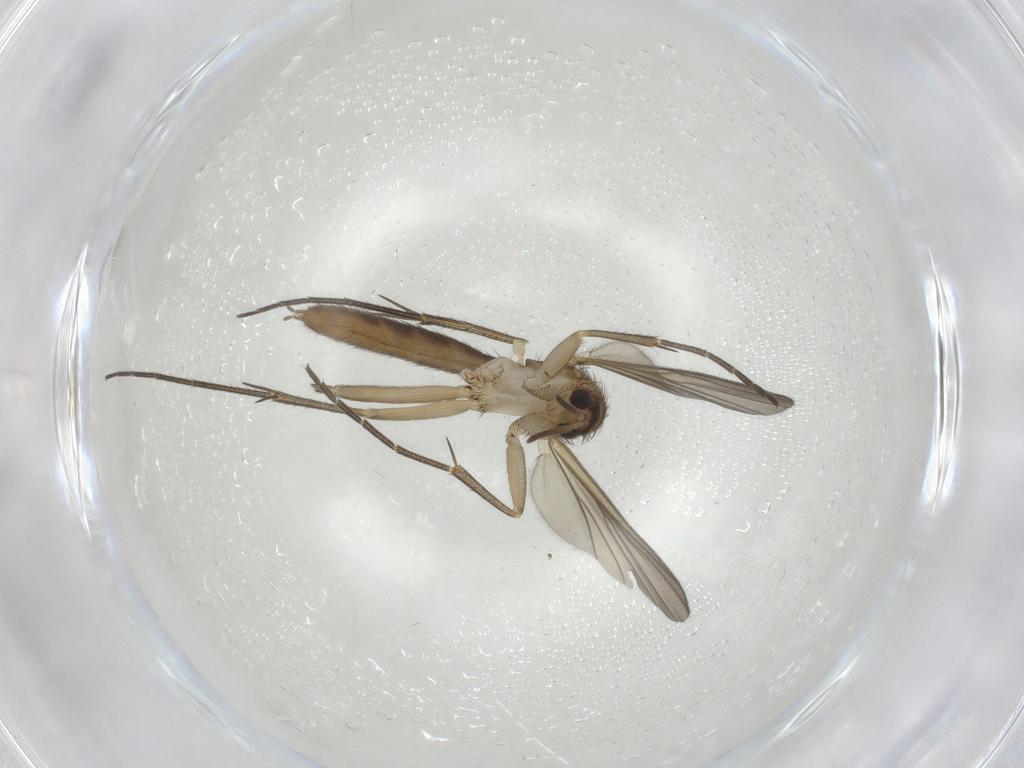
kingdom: Animalia
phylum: Arthropoda
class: Insecta
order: Diptera
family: Mycetophilidae
